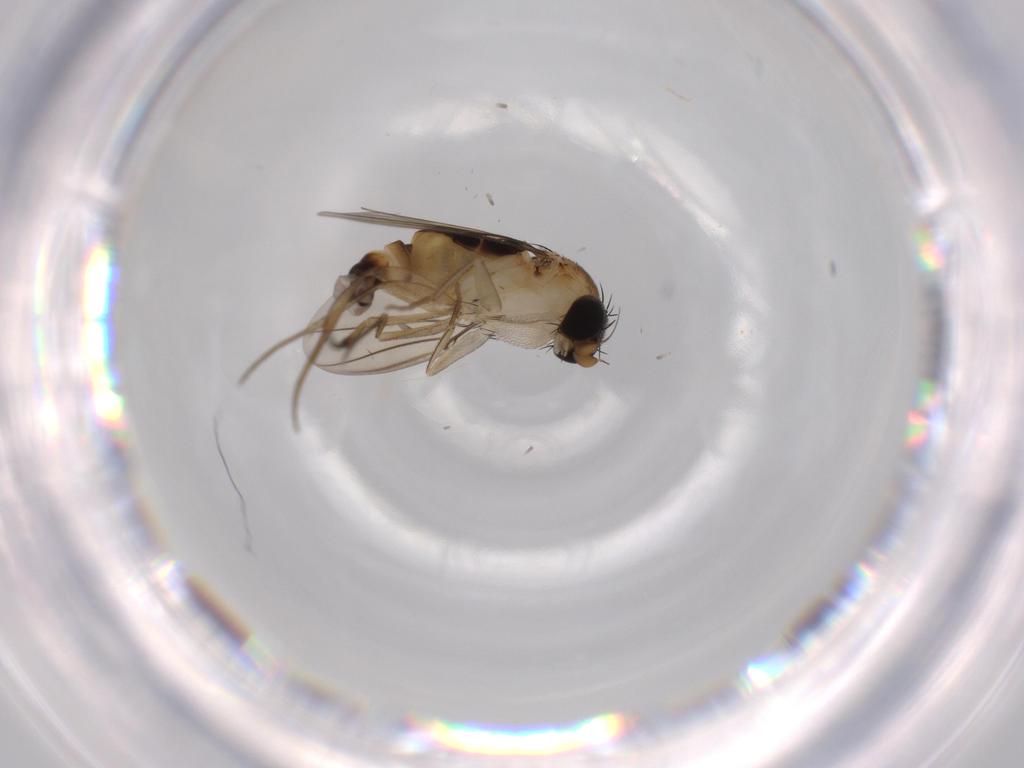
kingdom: Animalia
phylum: Arthropoda
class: Insecta
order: Diptera
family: Phoridae
